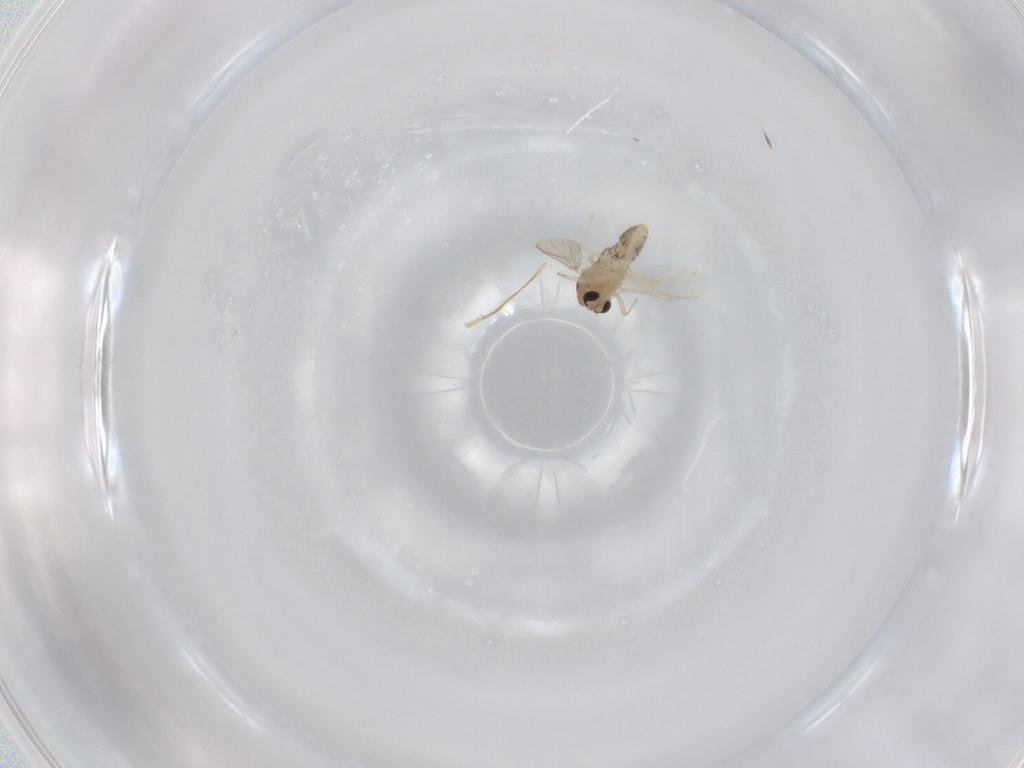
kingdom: Animalia
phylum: Arthropoda
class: Insecta
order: Diptera
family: Chironomidae
